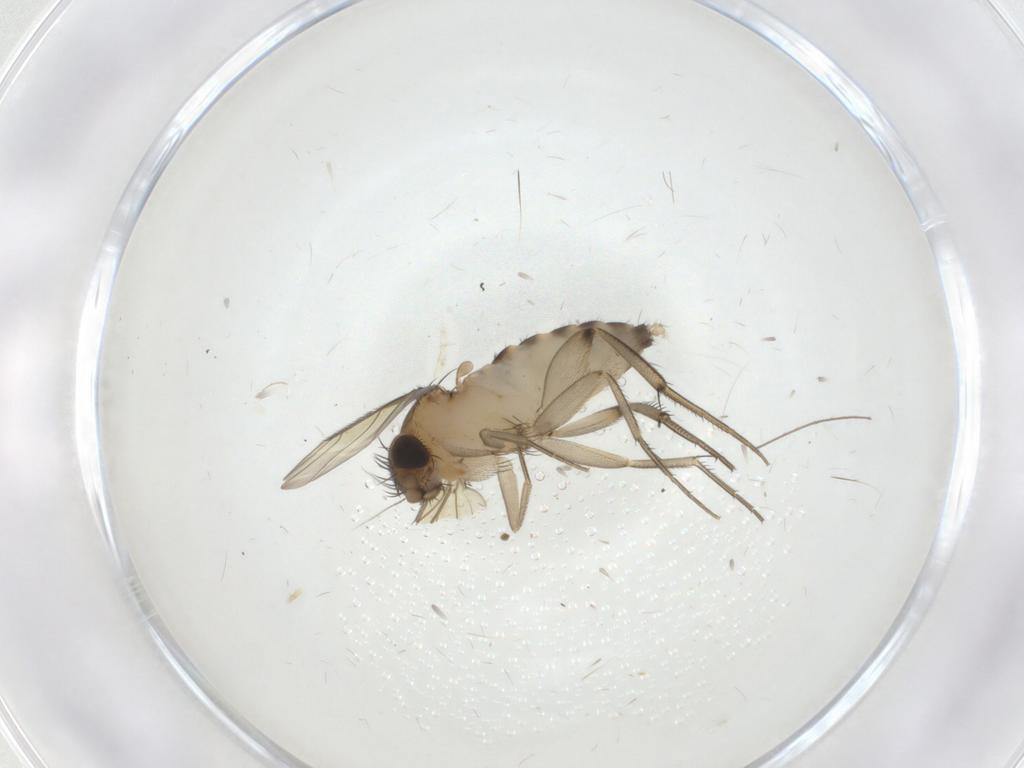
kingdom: Animalia
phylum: Arthropoda
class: Insecta
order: Diptera
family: Phoridae
